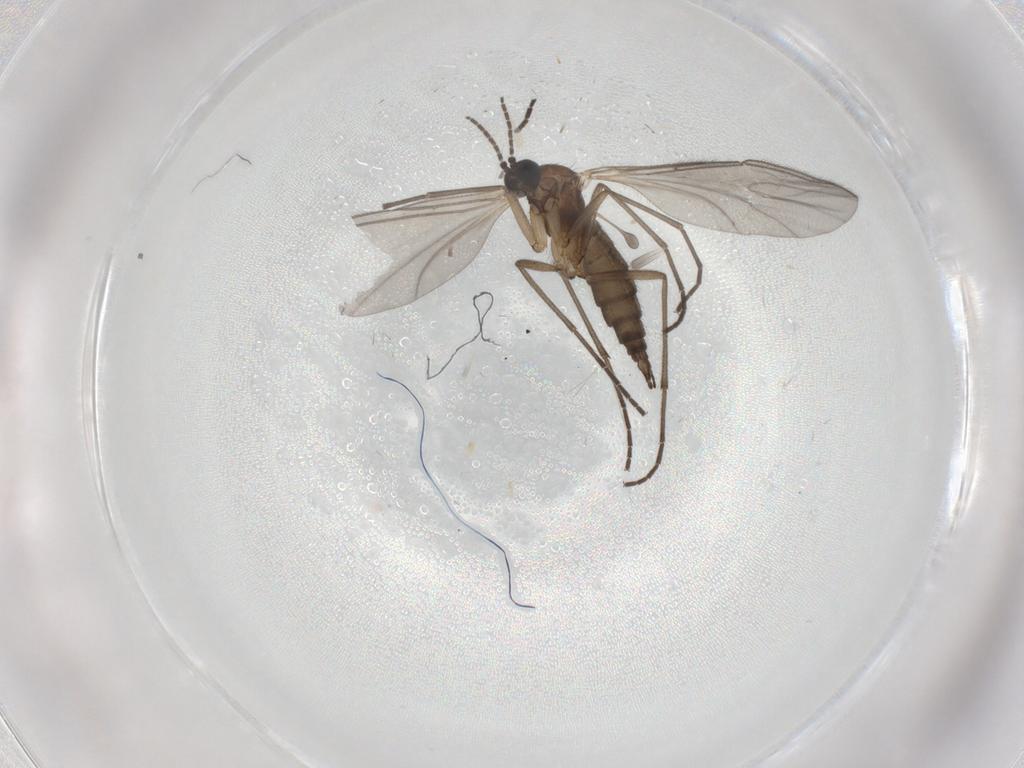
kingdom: Animalia
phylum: Arthropoda
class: Insecta
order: Diptera
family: Sciaridae
